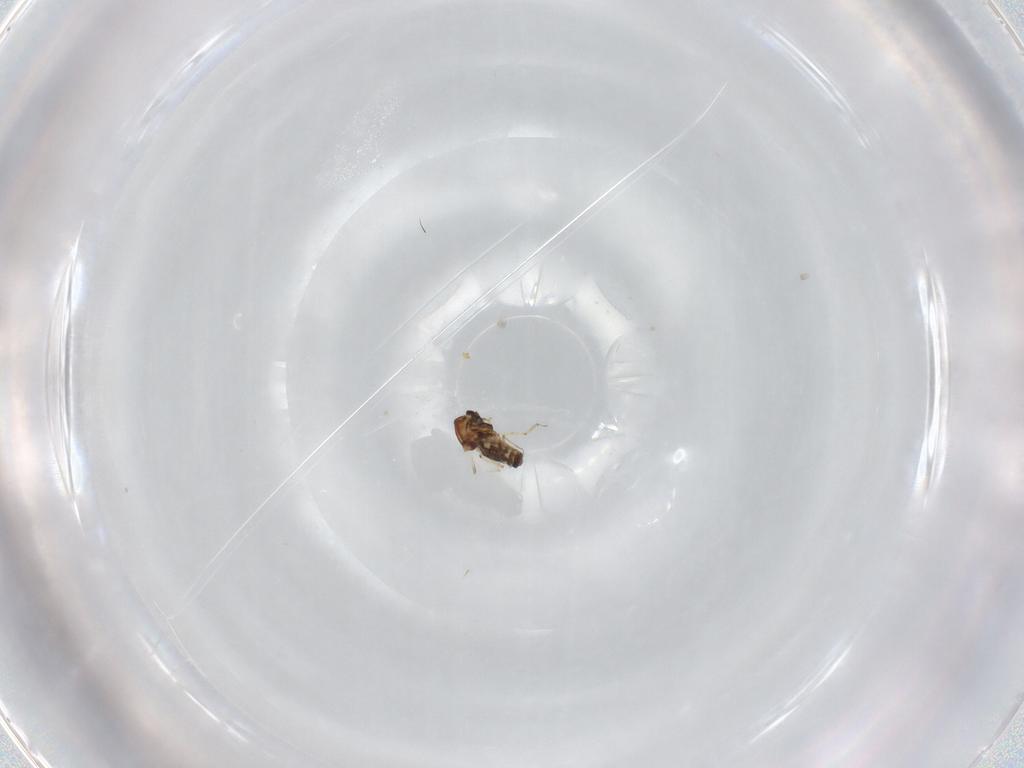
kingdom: Animalia
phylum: Arthropoda
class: Insecta
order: Diptera
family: Ceratopogonidae
